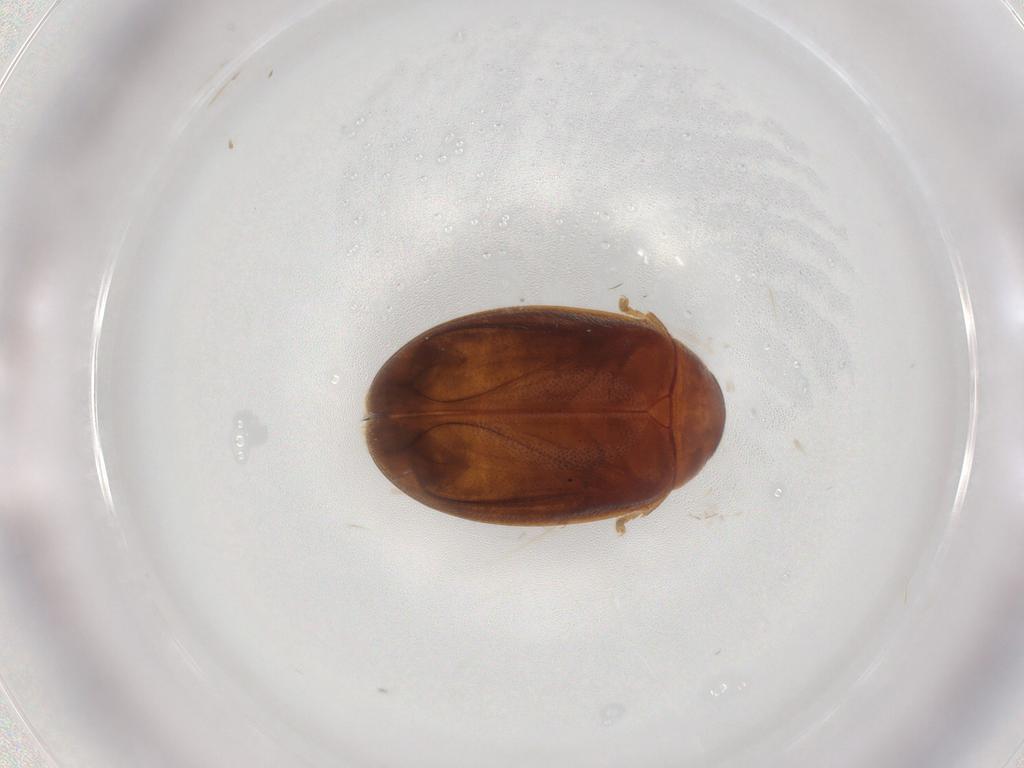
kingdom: Animalia
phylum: Arthropoda
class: Insecta
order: Coleoptera
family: Scirtidae
